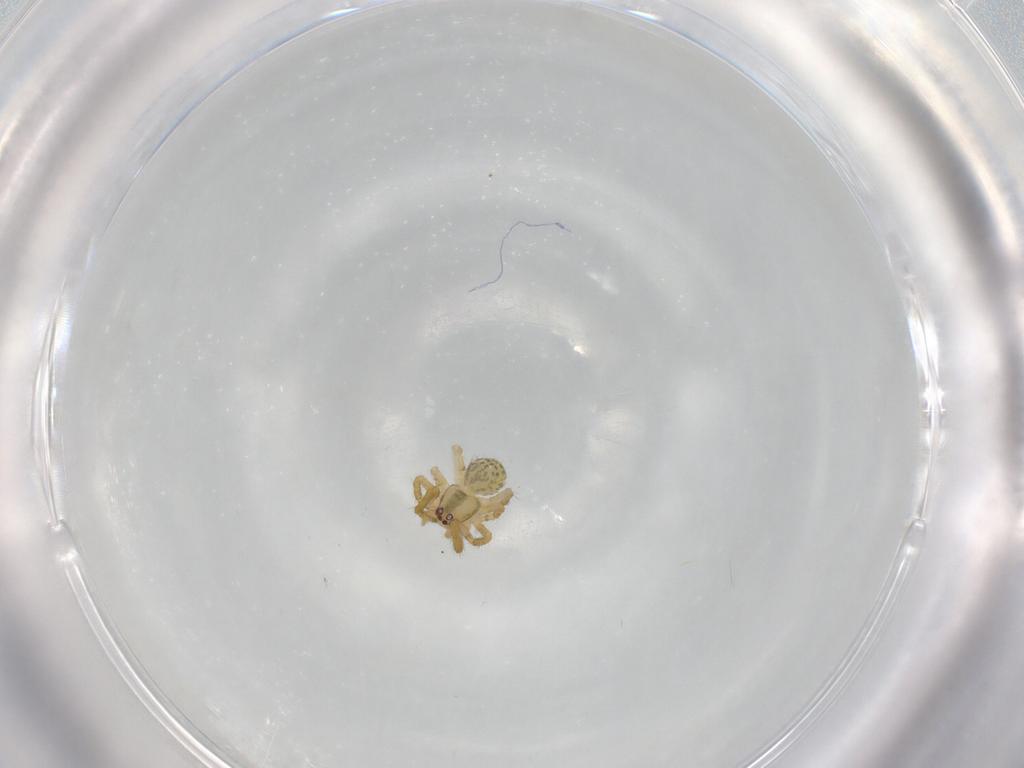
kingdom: Animalia
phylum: Arthropoda
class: Arachnida
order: Araneae
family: Theridiidae
